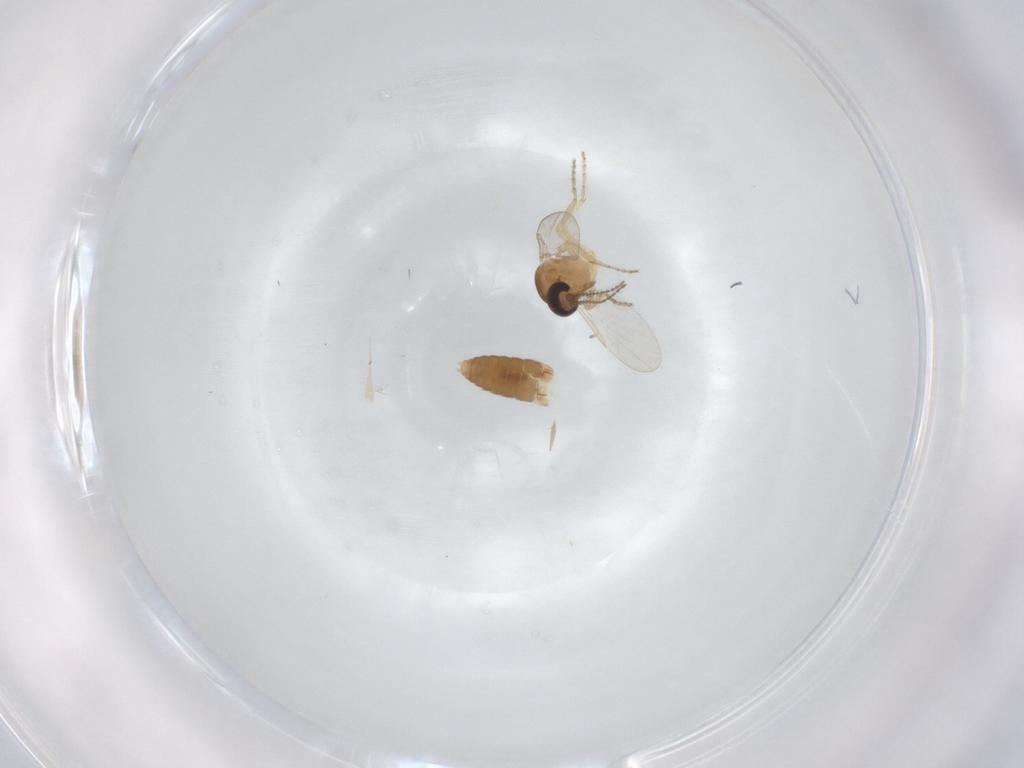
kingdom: Animalia
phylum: Arthropoda
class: Insecta
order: Diptera
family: Ceratopogonidae
